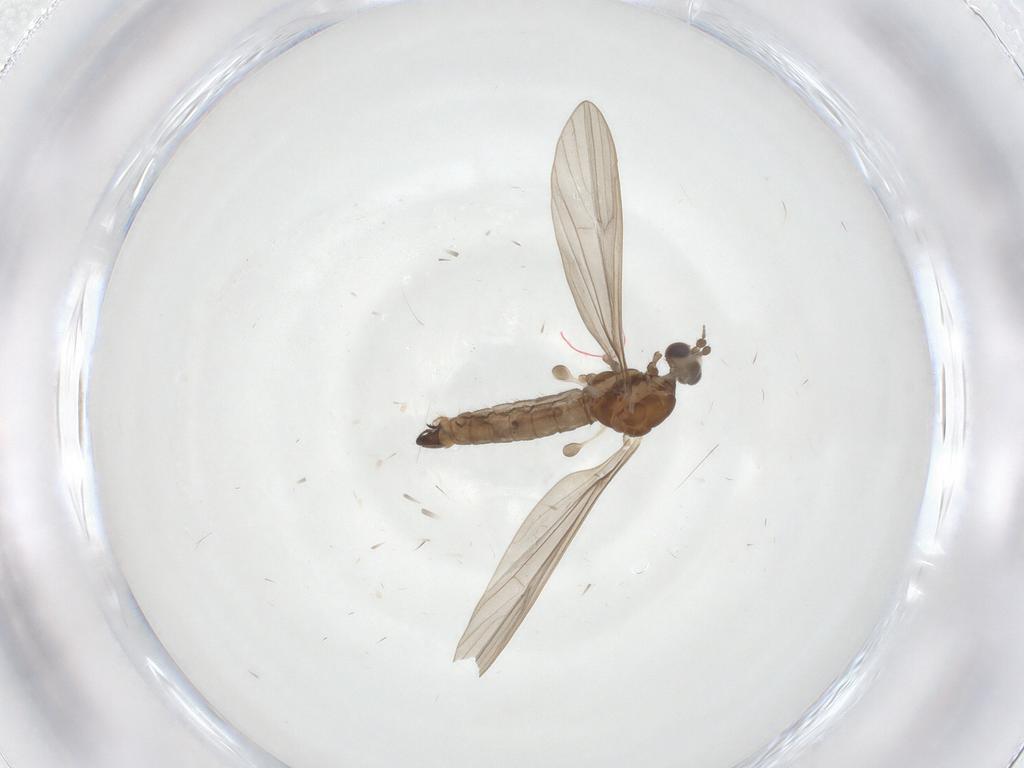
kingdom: Animalia
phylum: Arthropoda
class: Insecta
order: Diptera
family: Limoniidae
